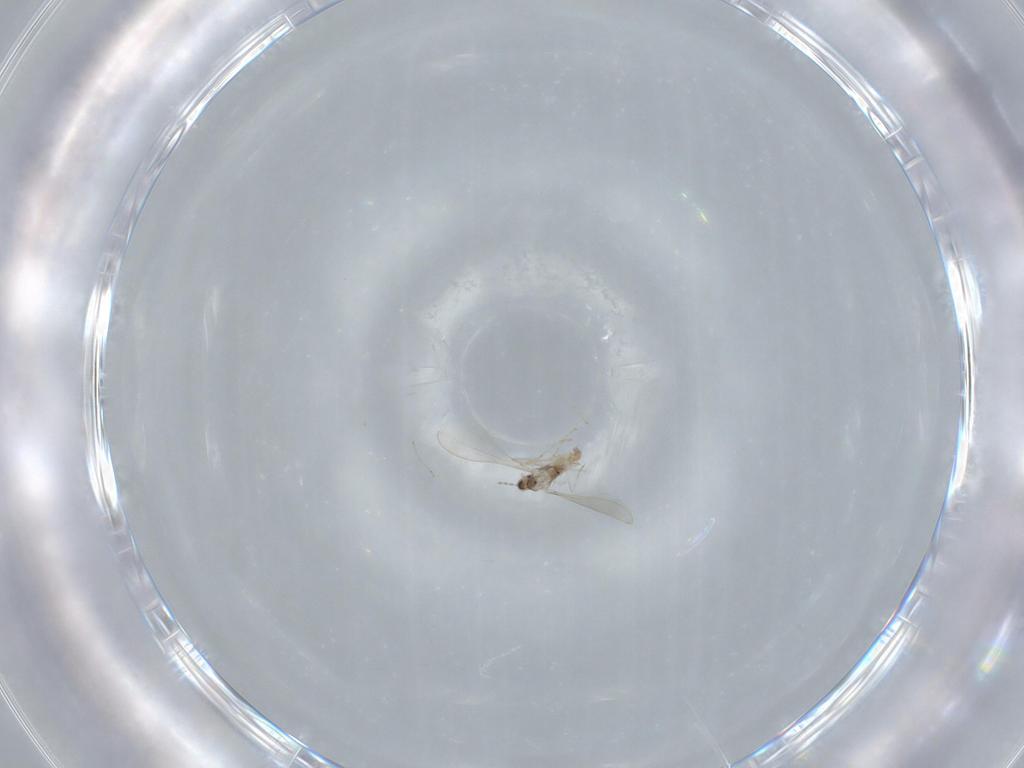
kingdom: Animalia
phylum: Arthropoda
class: Insecta
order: Diptera
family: Cecidomyiidae
